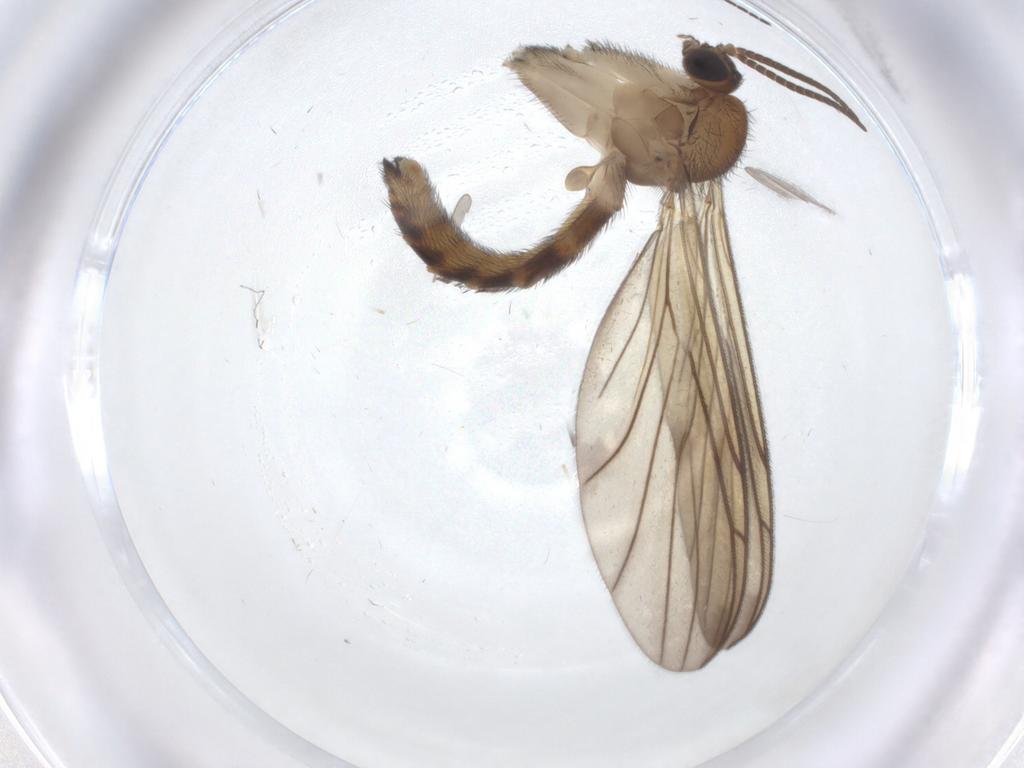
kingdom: Animalia
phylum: Arthropoda
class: Insecta
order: Diptera
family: Keroplatidae
